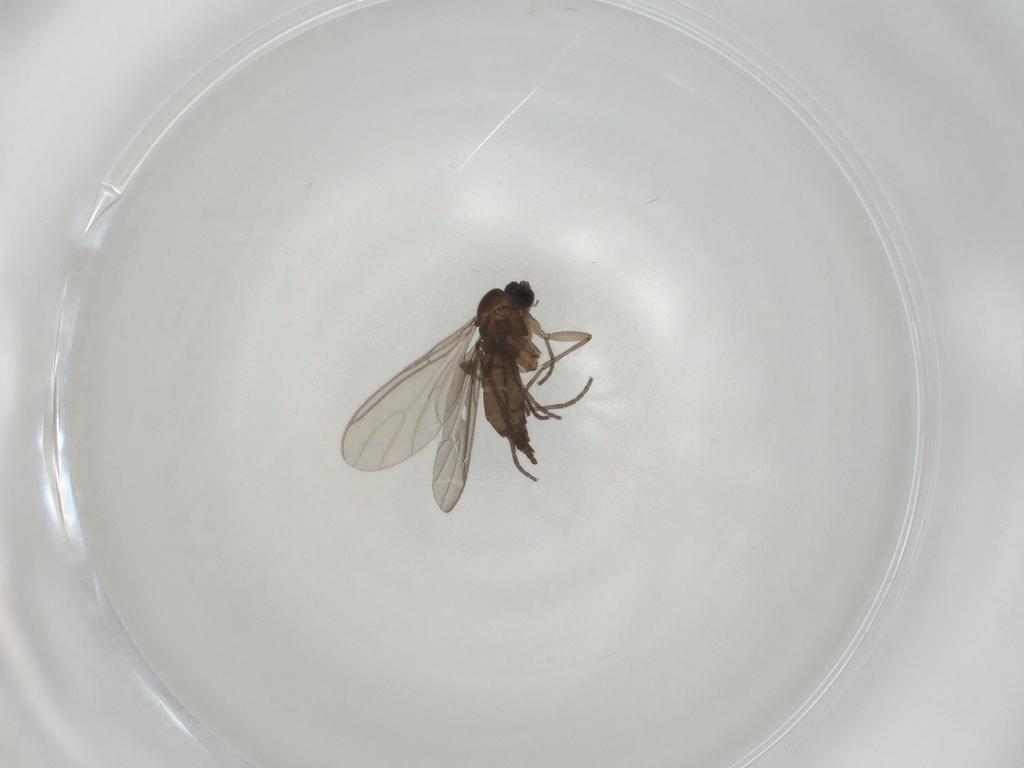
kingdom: Animalia
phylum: Arthropoda
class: Insecta
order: Diptera
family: Sciaridae
